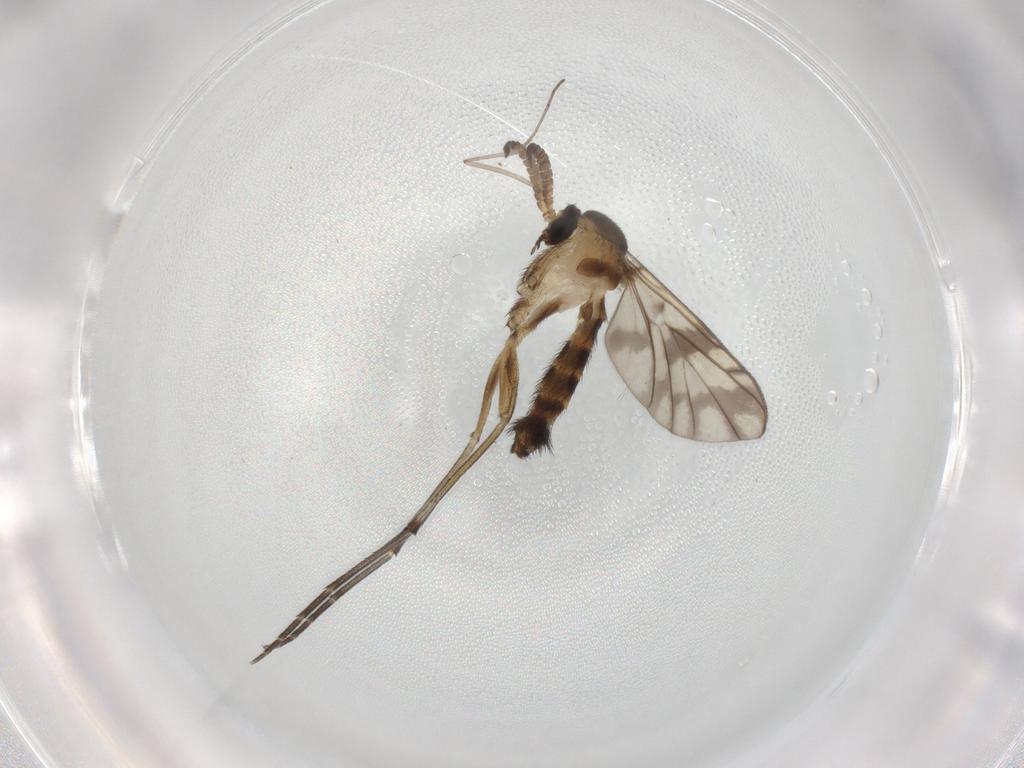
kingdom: Animalia
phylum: Arthropoda
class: Insecta
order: Diptera
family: Keroplatidae
